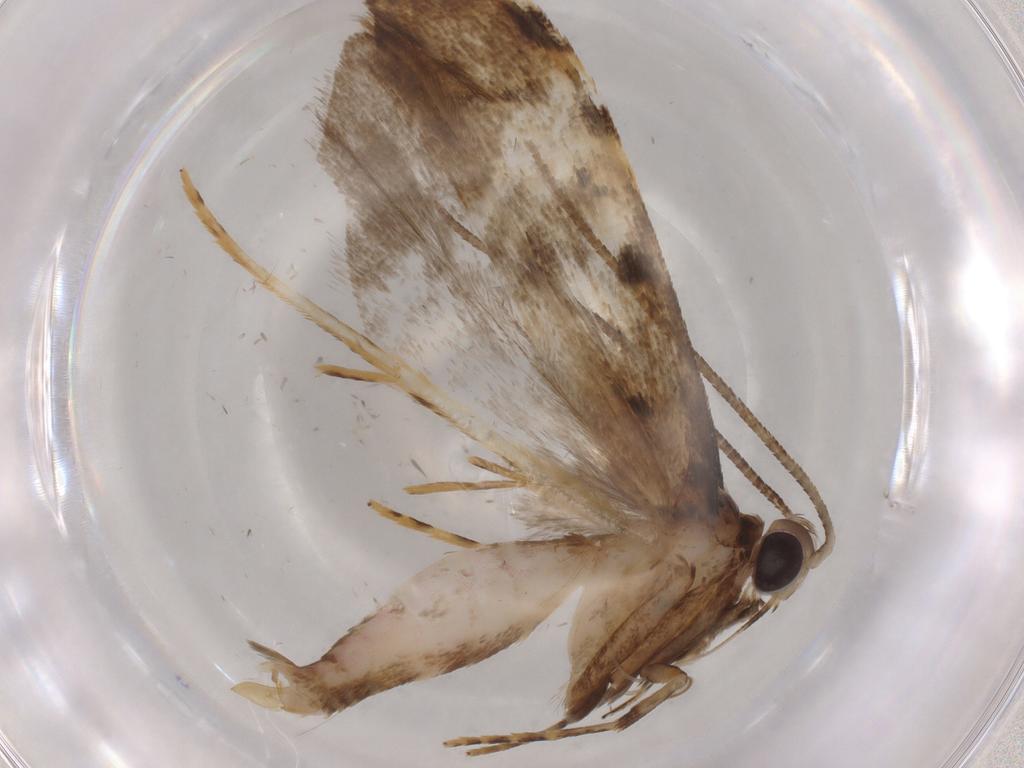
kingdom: Animalia
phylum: Arthropoda
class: Insecta
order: Lepidoptera
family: Autostichidae
